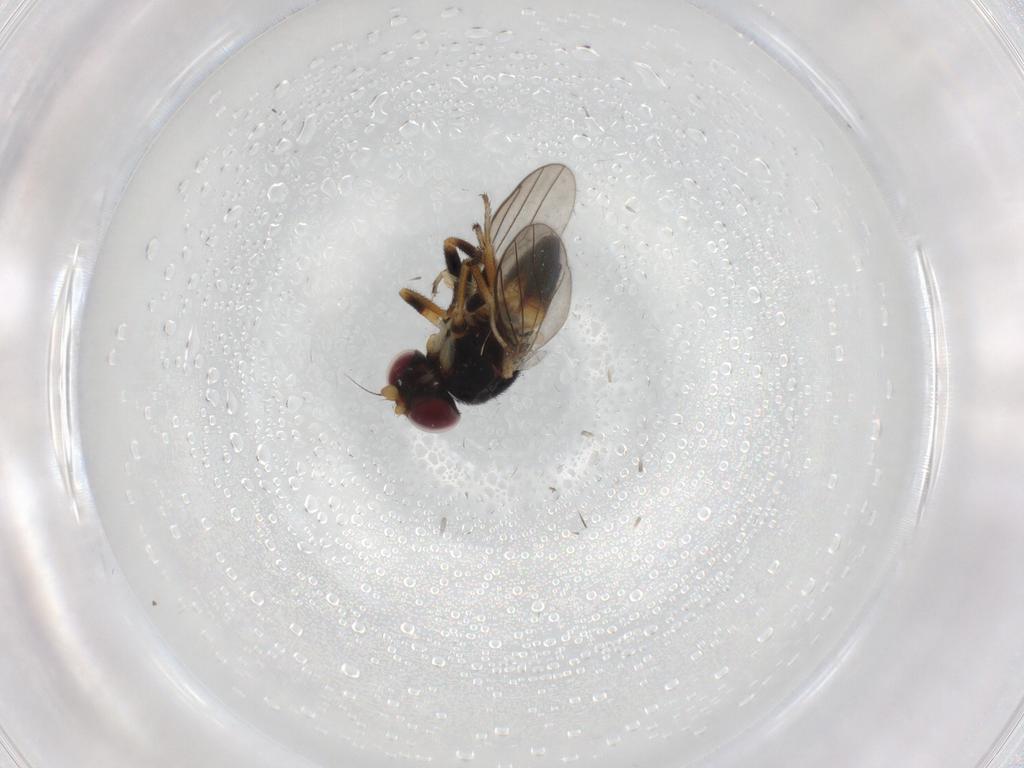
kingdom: Animalia
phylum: Arthropoda
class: Insecta
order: Diptera
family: Chloropidae
